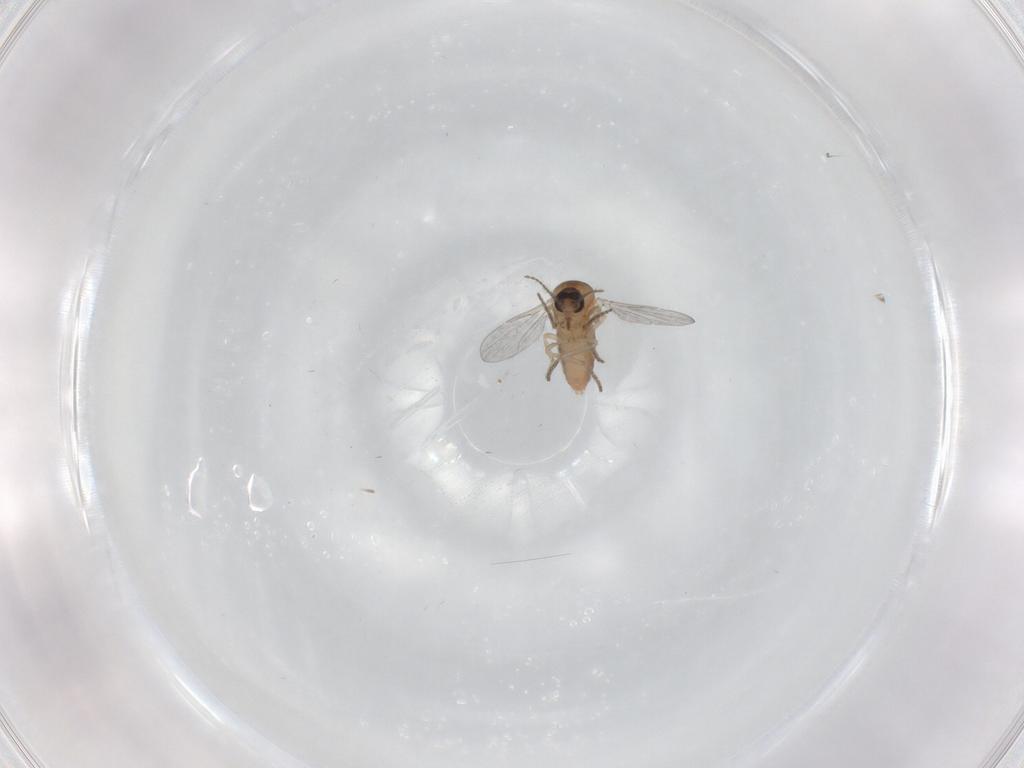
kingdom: Animalia
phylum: Arthropoda
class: Insecta
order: Diptera
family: Ceratopogonidae
